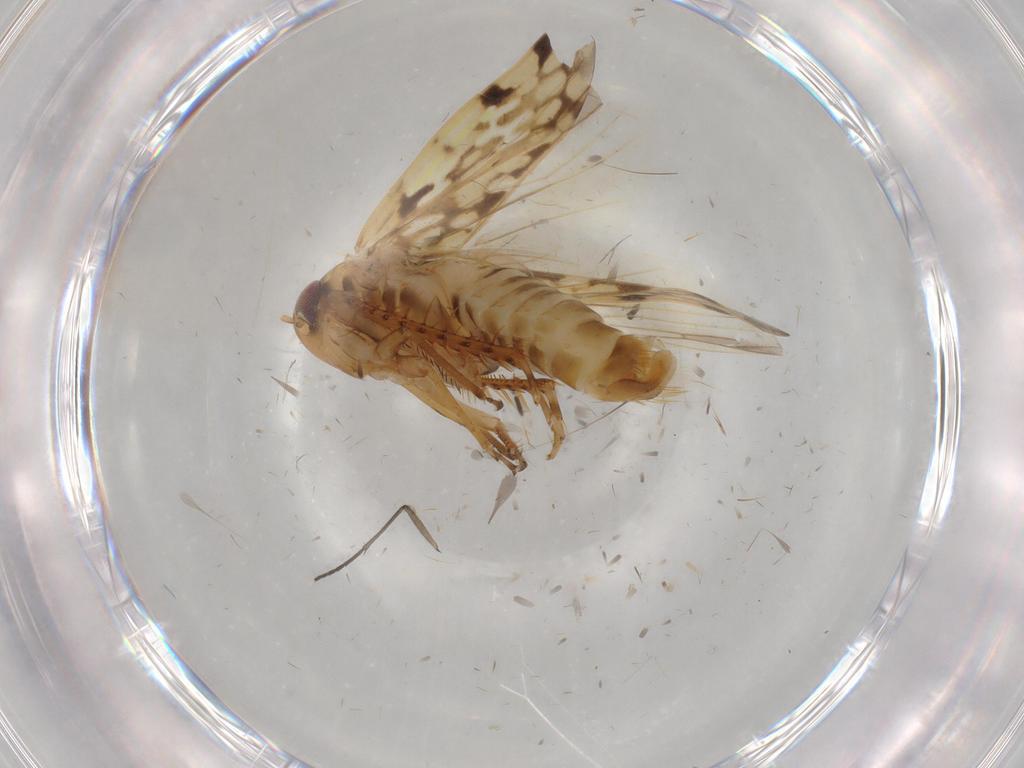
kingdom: Animalia
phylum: Arthropoda
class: Insecta
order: Hemiptera
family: Cicadellidae
